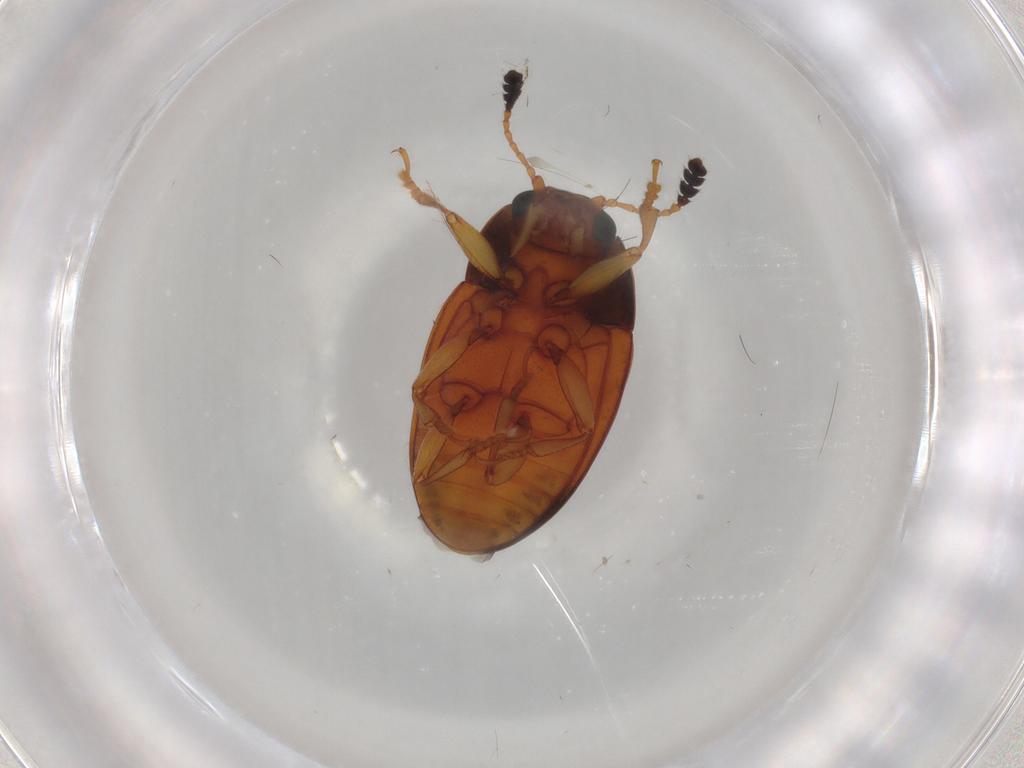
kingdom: Animalia
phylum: Arthropoda
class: Insecta
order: Coleoptera
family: Erotylidae
